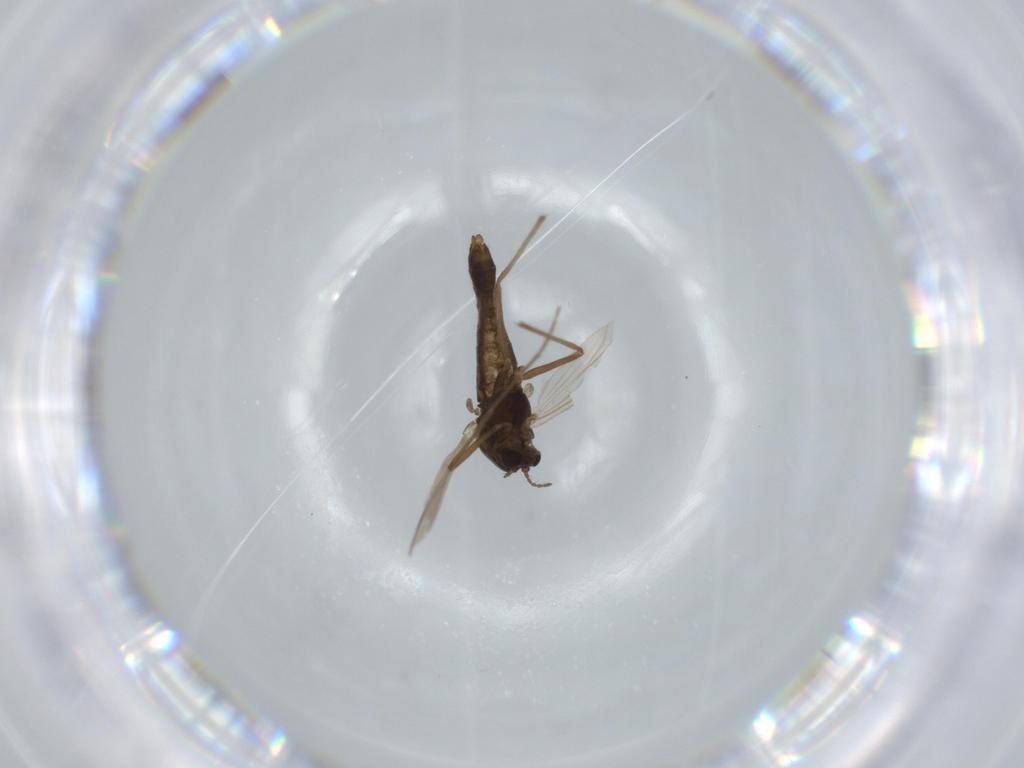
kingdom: Animalia
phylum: Arthropoda
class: Insecta
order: Diptera
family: Chironomidae
